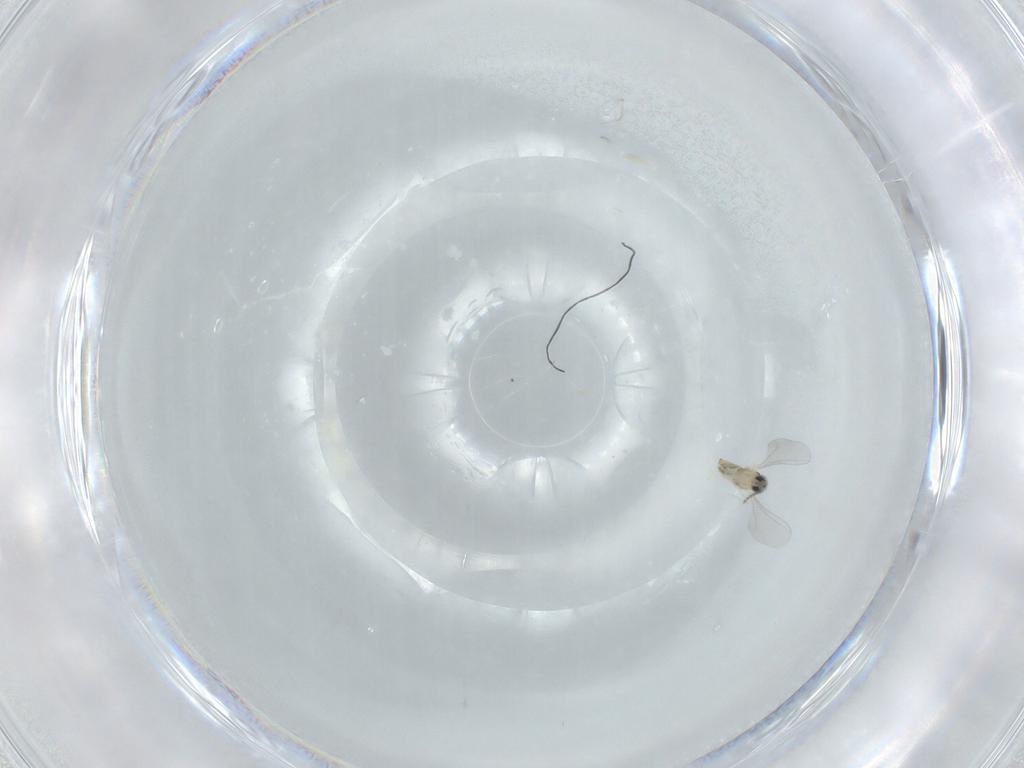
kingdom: Animalia
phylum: Arthropoda
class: Insecta
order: Diptera
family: Cecidomyiidae
